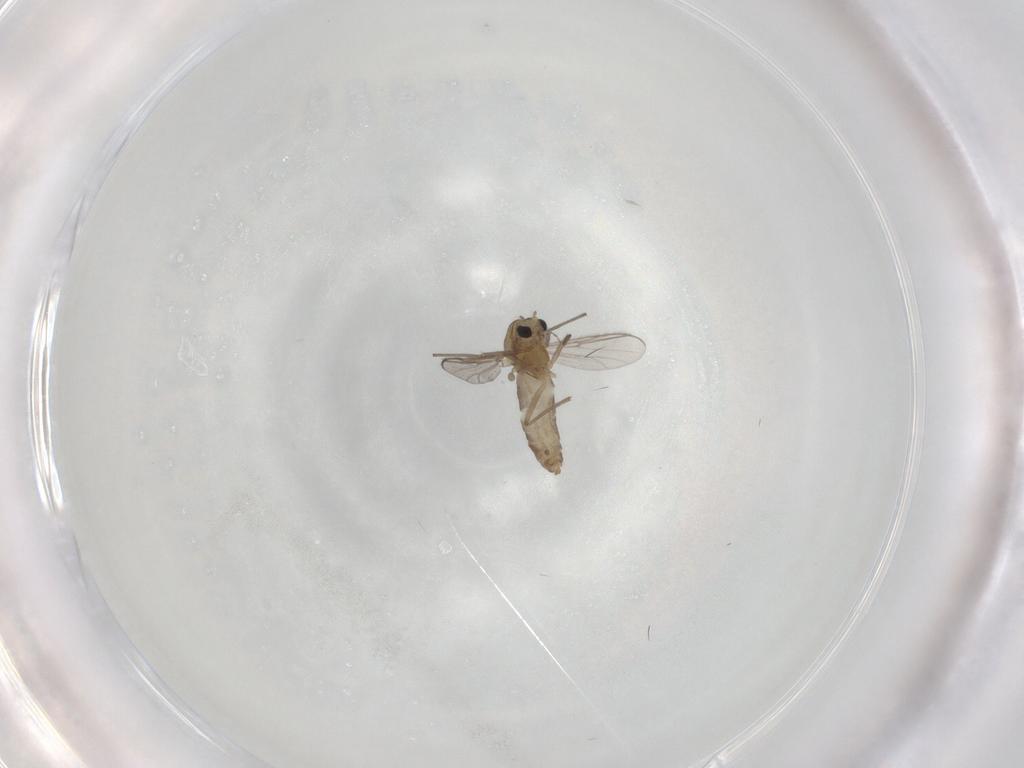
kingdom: Animalia
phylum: Arthropoda
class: Insecta
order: Diptera
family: Chironomidae
